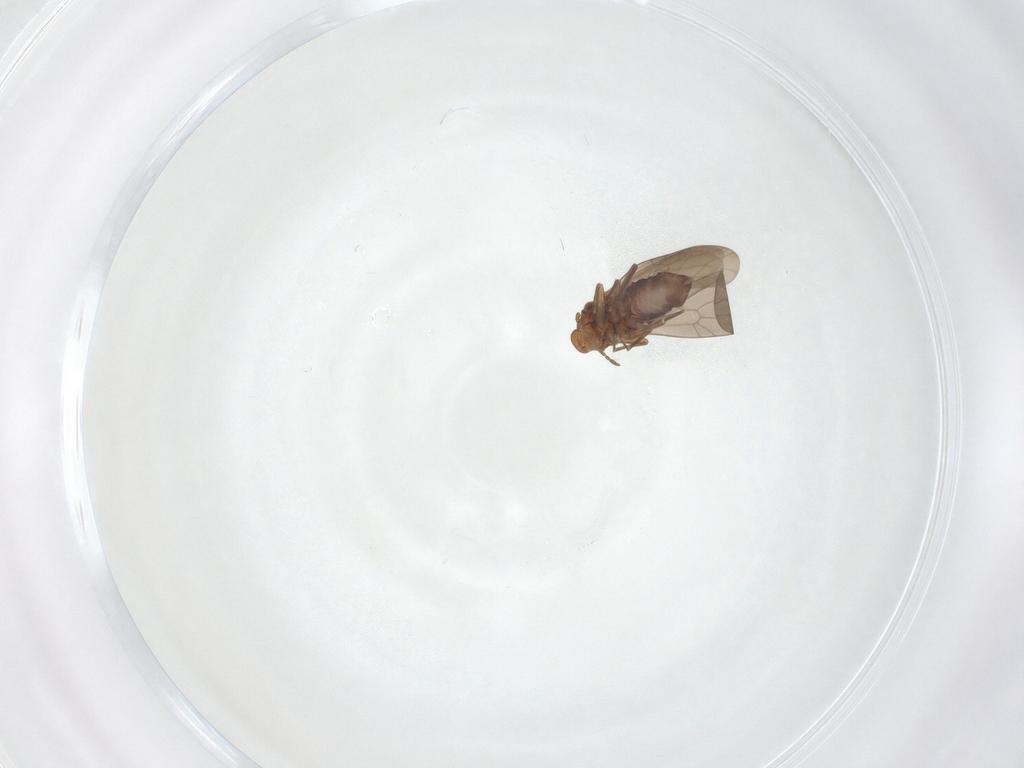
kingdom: Animalia
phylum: Arthropoda
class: Insecta
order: Psocodea
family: Lepidopsocidae
